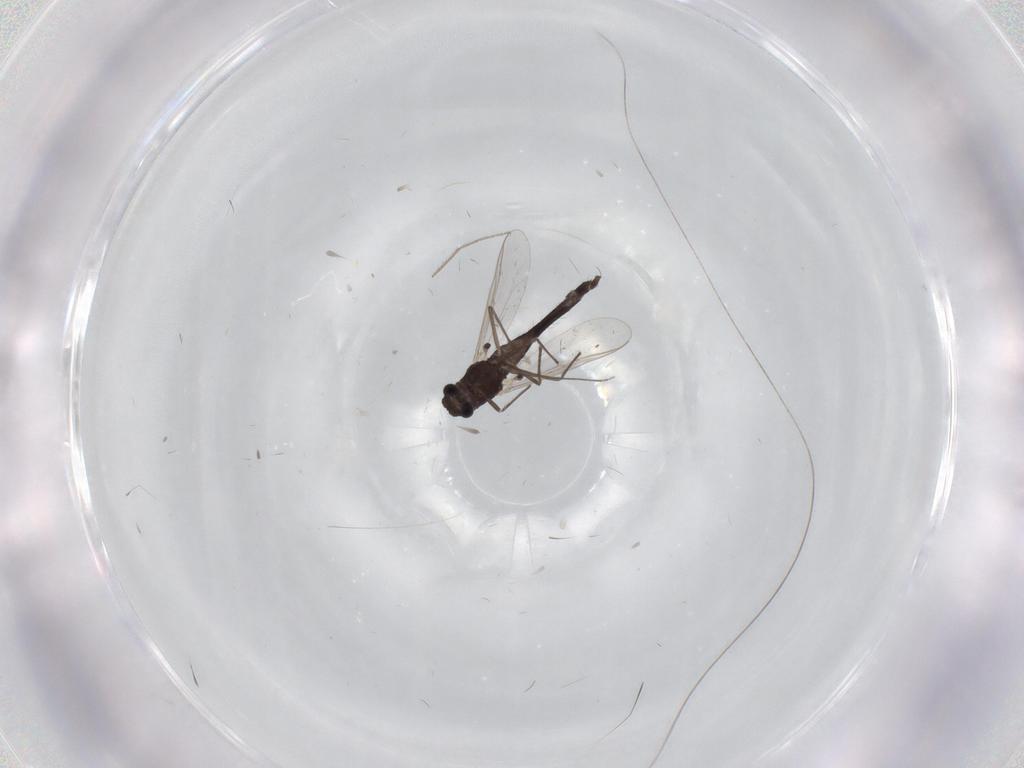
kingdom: Animalia
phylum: Arthropoda
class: Insecta
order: Diptera
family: Chironomidae
